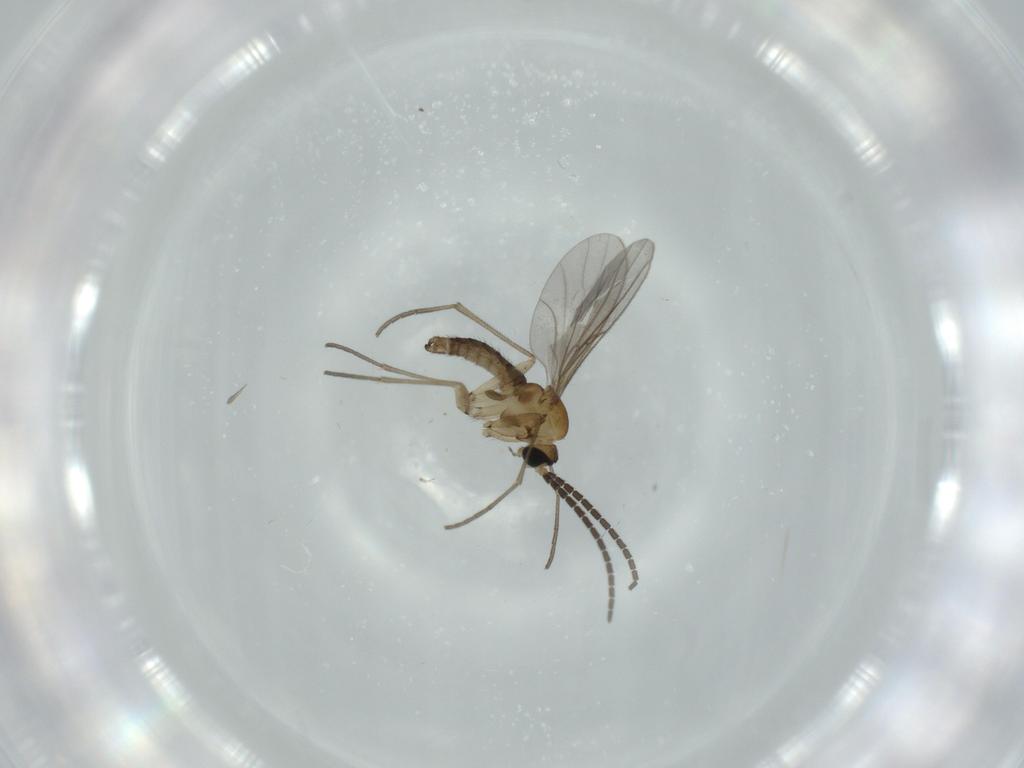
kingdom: Animalia
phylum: Arthropoda
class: Insecta
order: Diptera
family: Sciaridae
